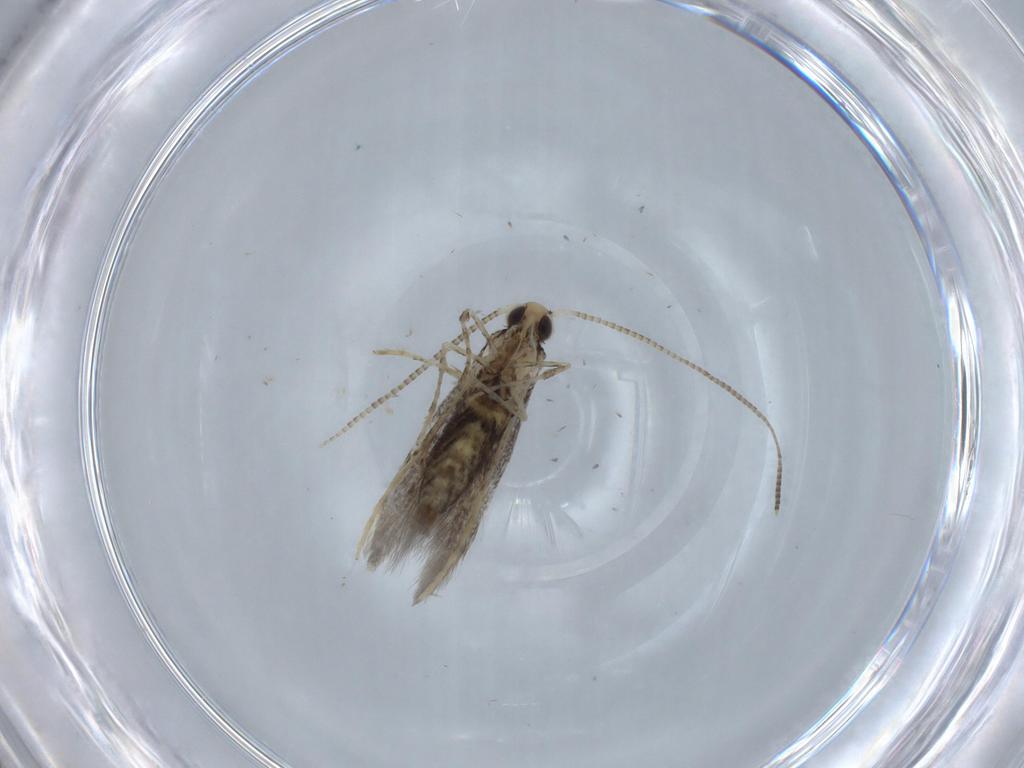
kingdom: Animalia
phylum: Arthropoda
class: Insecta
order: Lepidoptera
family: Gracillariidae
